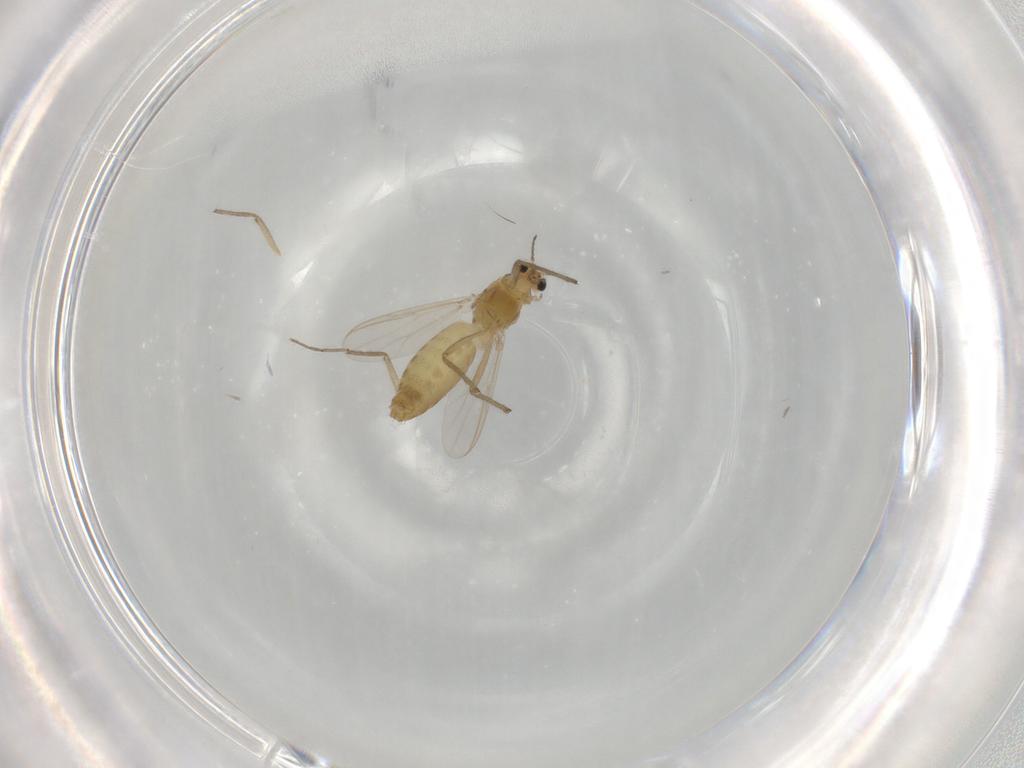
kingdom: Animalia
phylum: Arthropoda
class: Insecta
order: Diptera
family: Chironomidae
